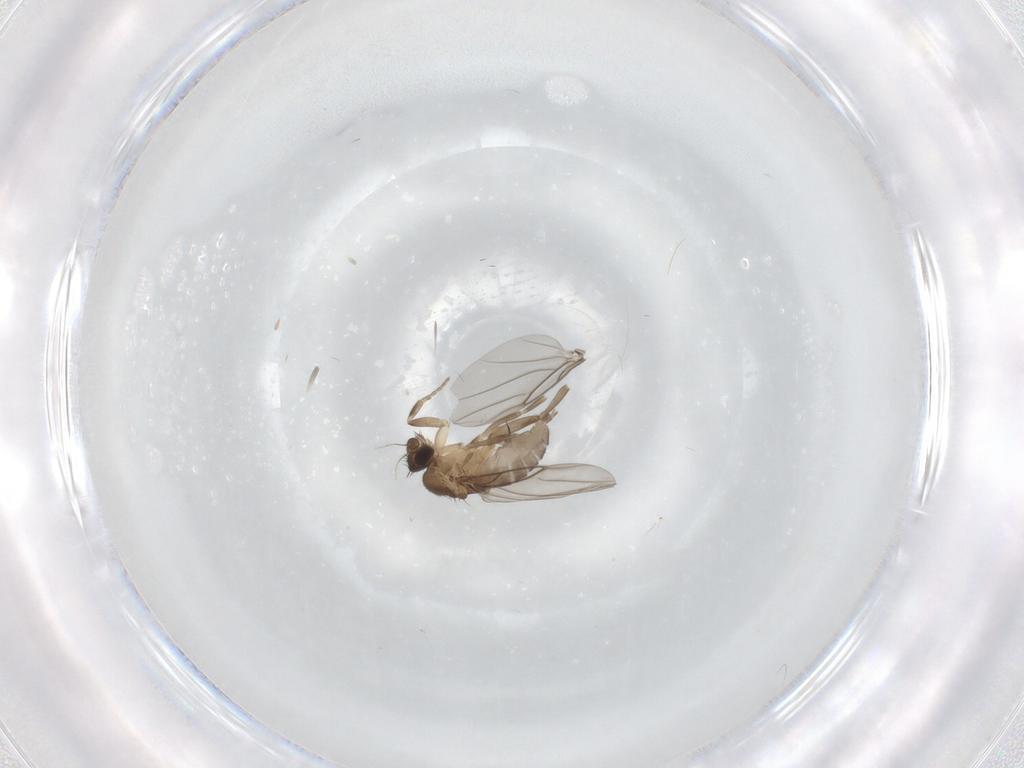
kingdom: Animalia
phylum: Arthropoda
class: Insecta
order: Diptera
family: Phoridae
